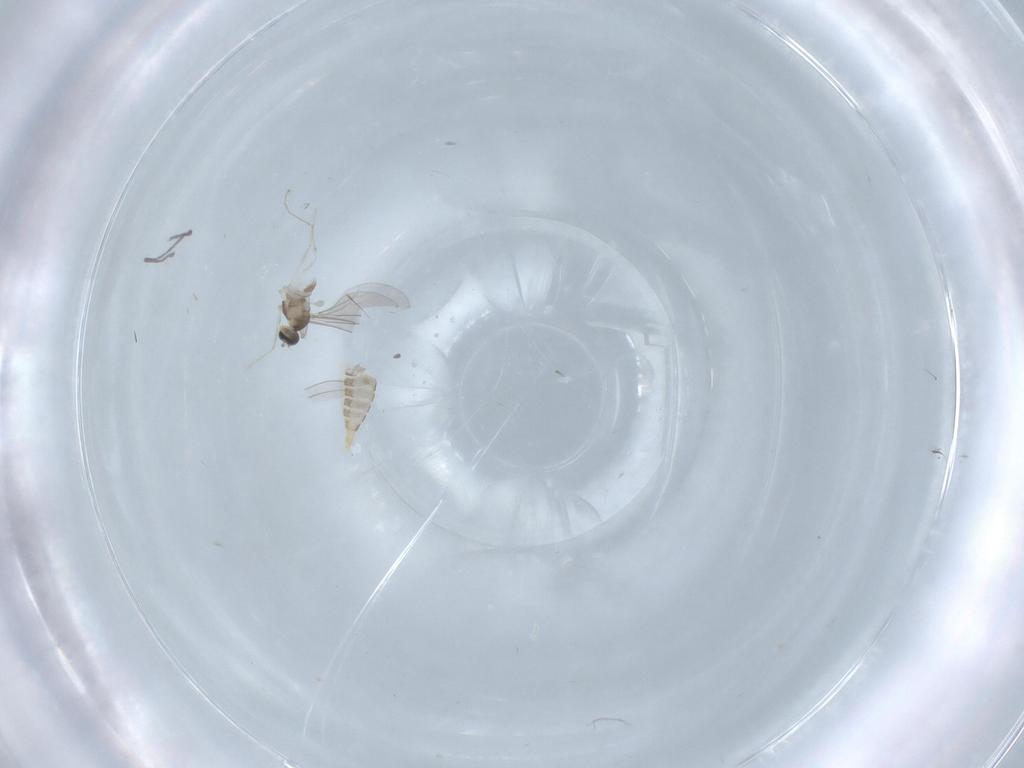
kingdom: Animalia
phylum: Arthropoda
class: Insecta
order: Diptera
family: Cecidomyiidae
